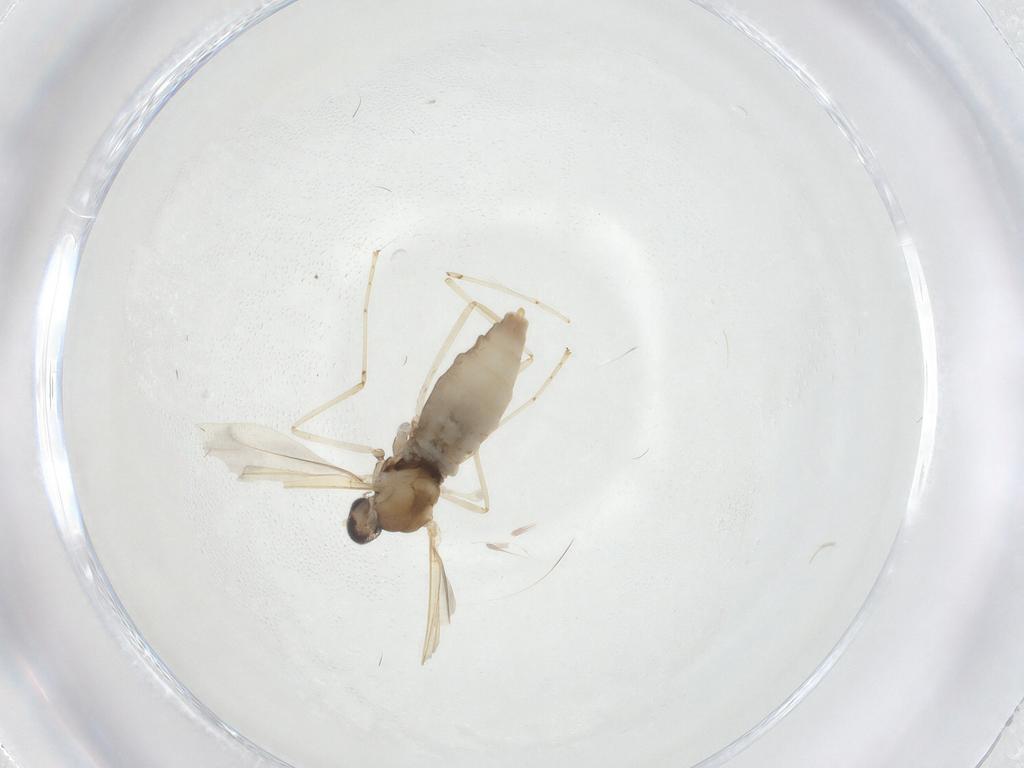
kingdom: Animalia
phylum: Arthropoda
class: Insecta
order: Diptera
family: Cecidomyiidae
